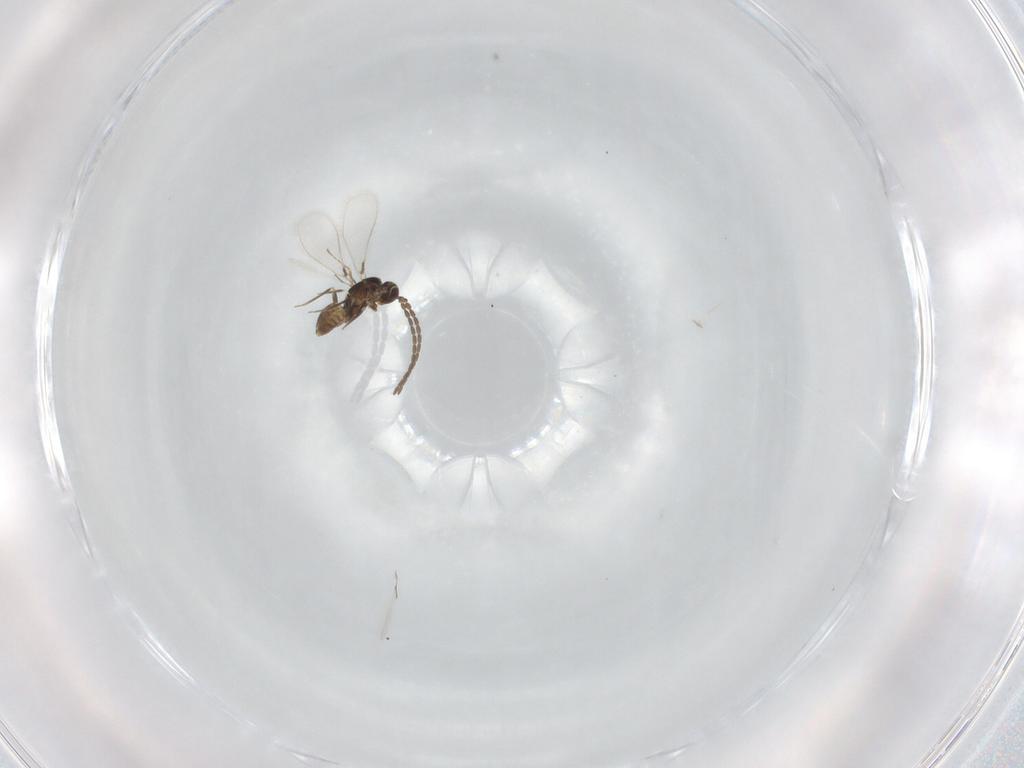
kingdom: Animalia
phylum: Arthropoda
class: Insecta
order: Hymenoptera
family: Mymaridae
